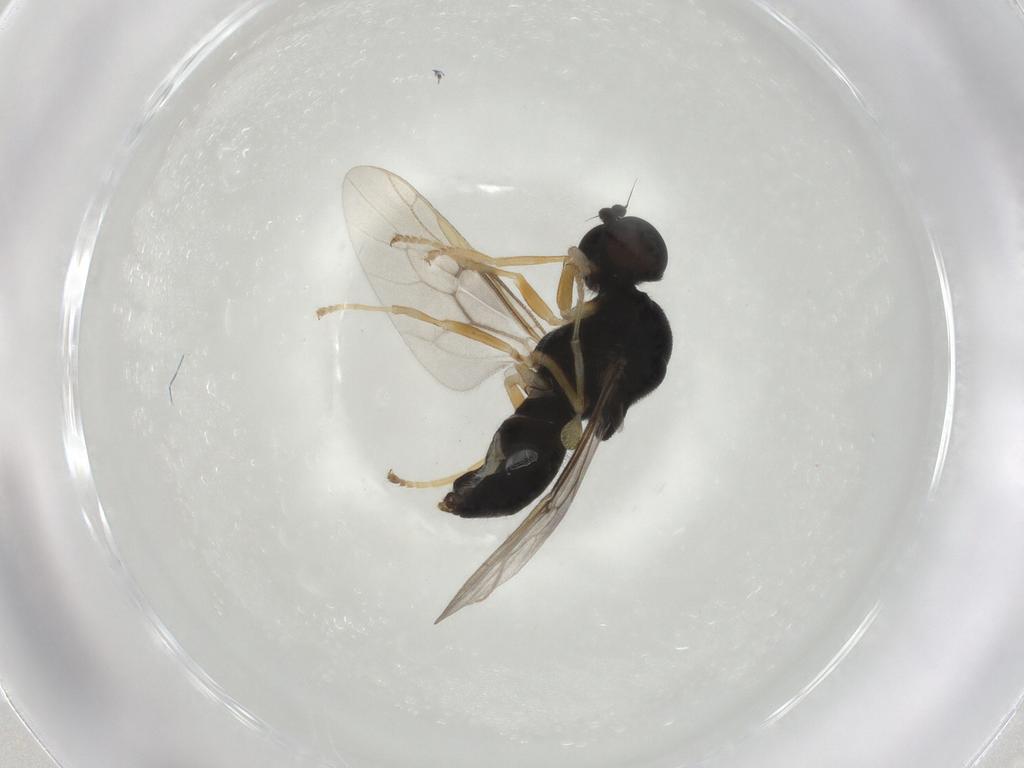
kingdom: Animalia
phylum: Arthropoda
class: Insecta
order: Diptera
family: Stratiomyidae
